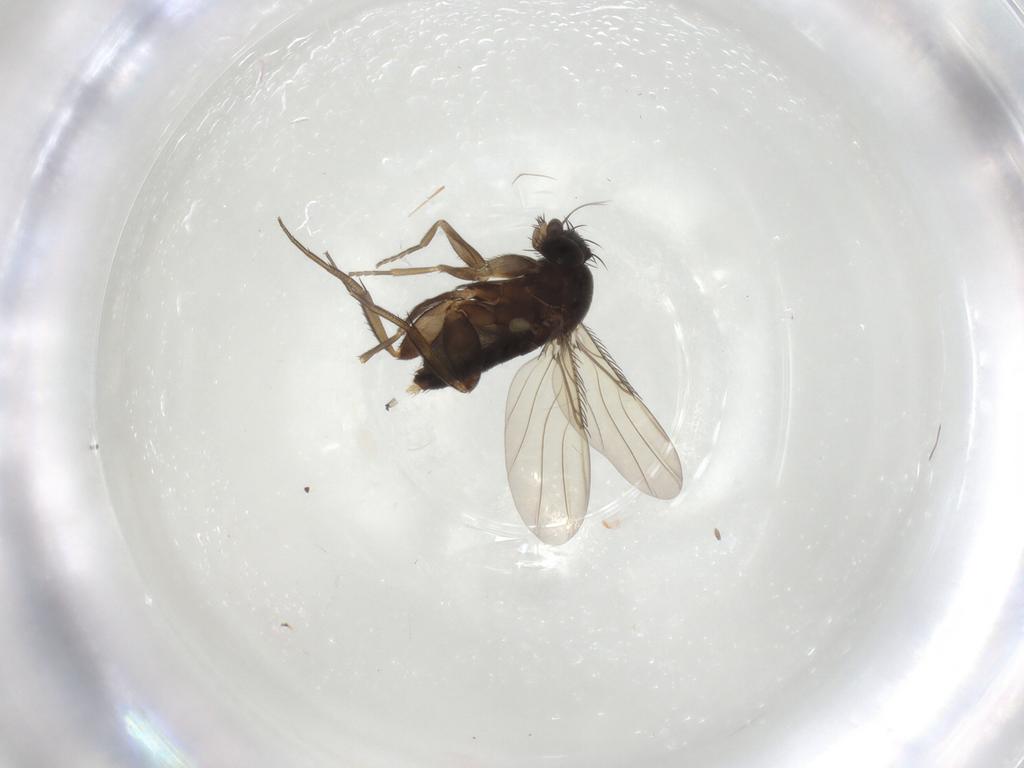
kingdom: Animalia
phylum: Arthropoda
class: Insecta
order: Diptera
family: Phoridae
